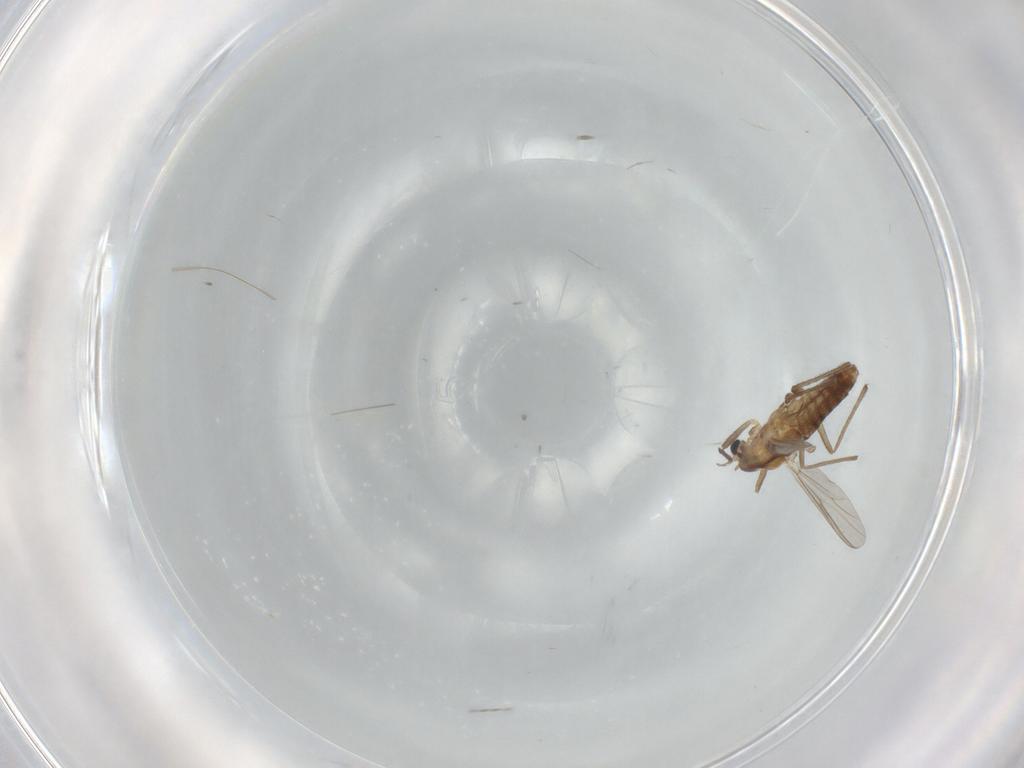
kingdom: Animalia
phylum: Arthropoda
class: Insecta
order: Diptera
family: Chironomidae
